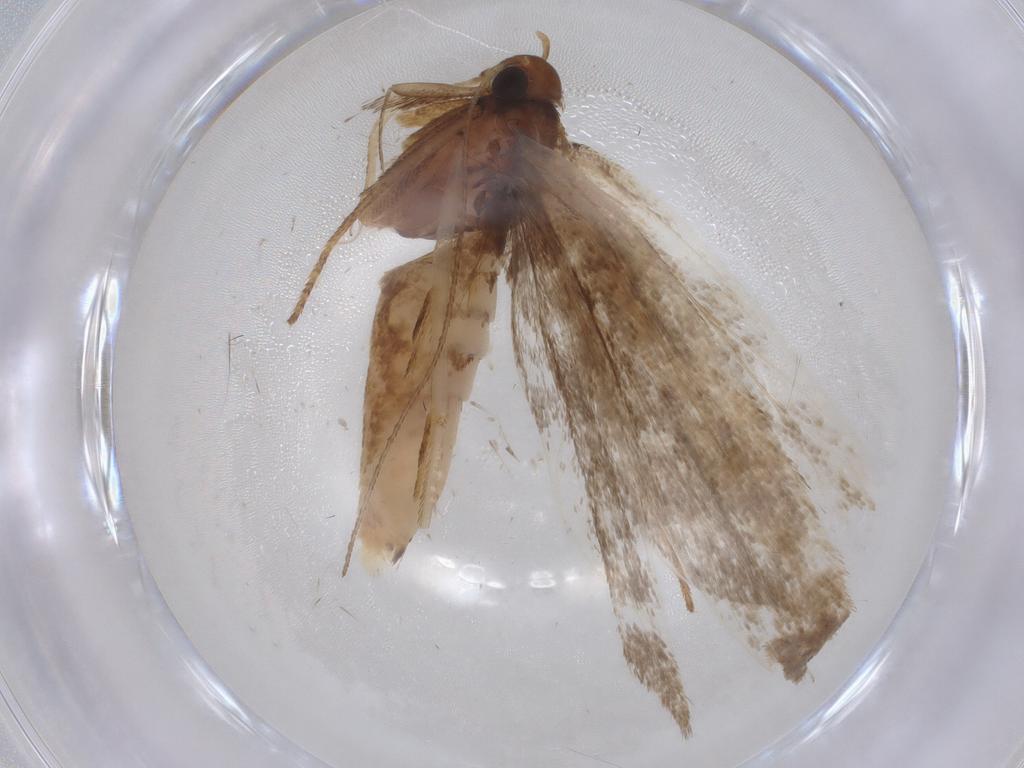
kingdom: Animalia
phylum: Arthropoda
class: Insecta
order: Lepidoptera
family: Gelechiidae
